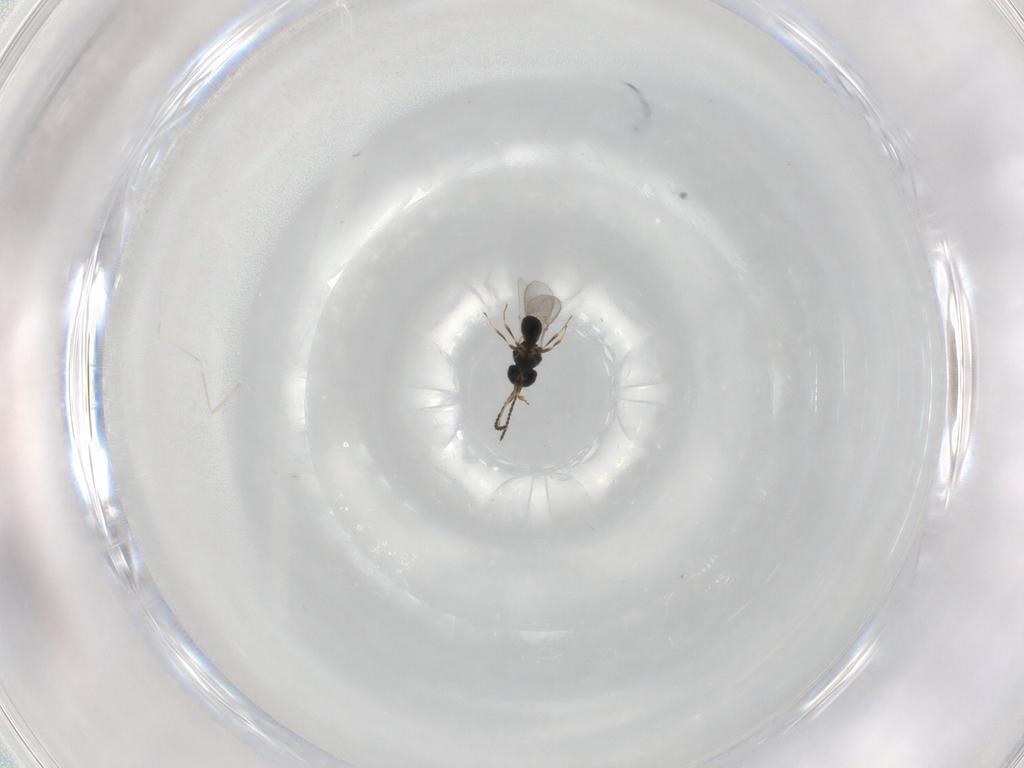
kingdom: Animalia
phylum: Arthropoda
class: Insecta
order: Hymenoptera
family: Scelionidae
